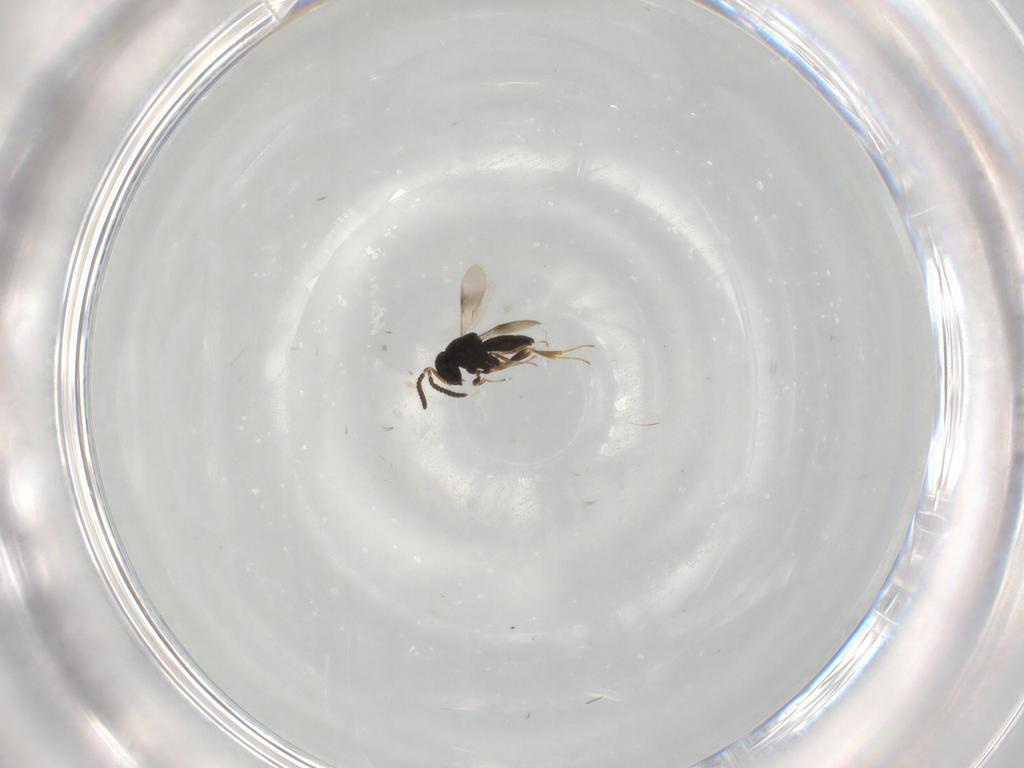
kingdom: Animalia
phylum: Arthropoda
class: Insecta
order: Hymenoptera
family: Scelionidae
